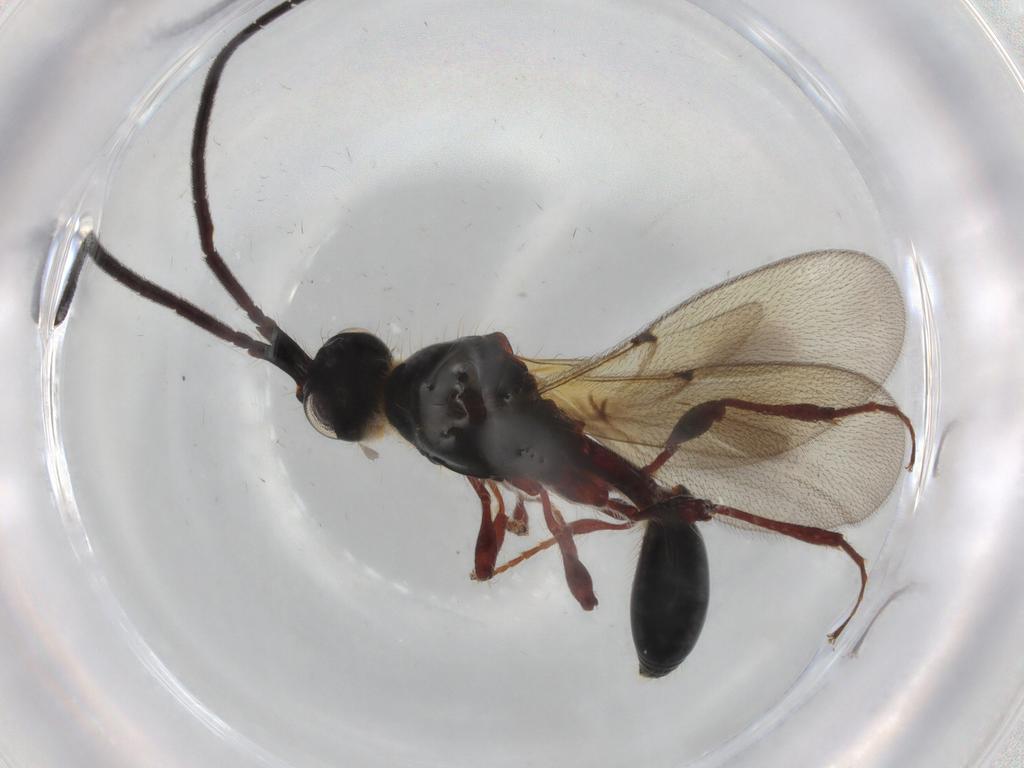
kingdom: Animalia
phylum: Arthropoda
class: Insecta
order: Hymenoptera
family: Diapriidae
